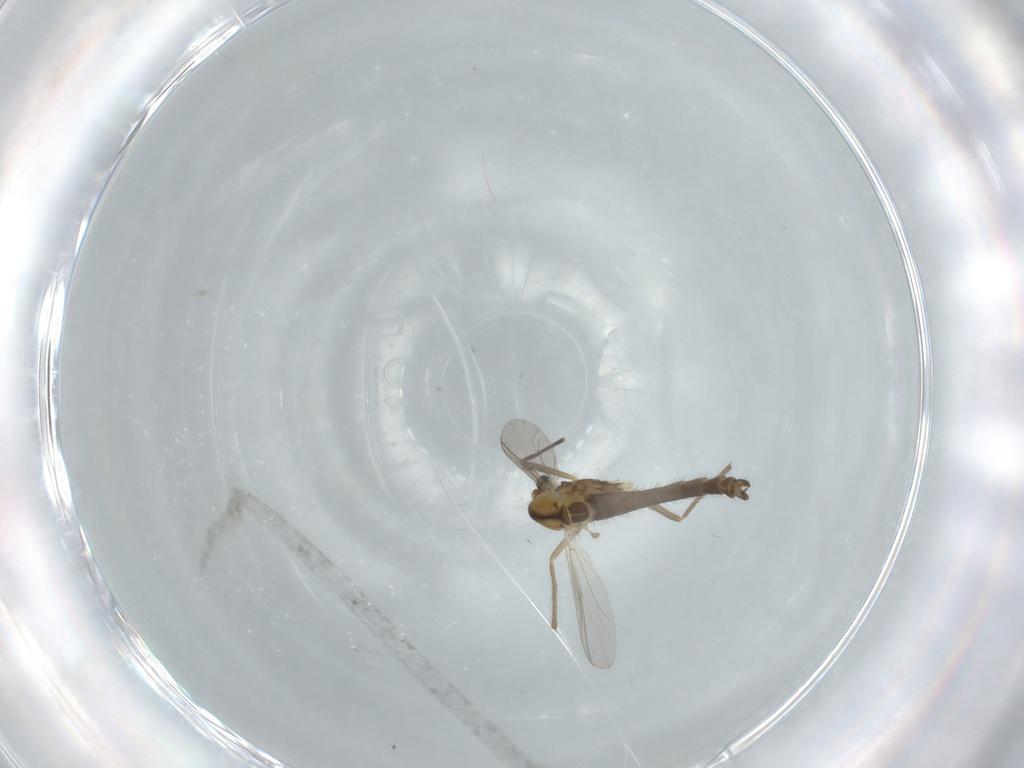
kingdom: Animalia
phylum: Arthropoda
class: Insecta
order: Diptera
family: Chironomidae
